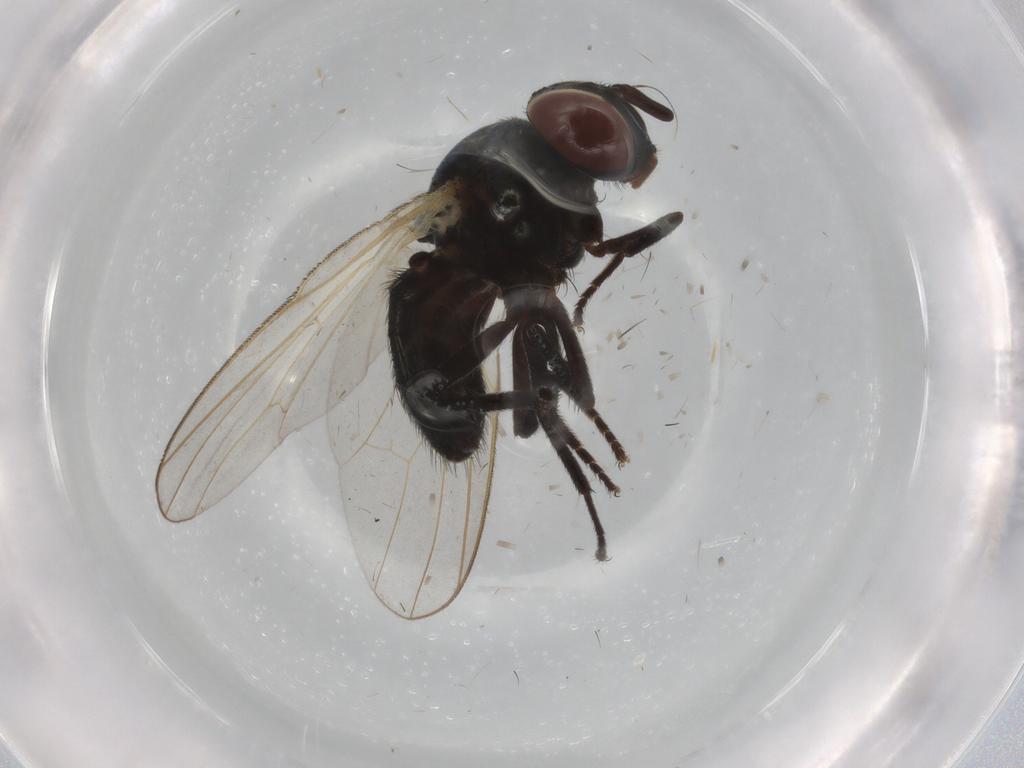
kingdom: Animalia
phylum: Arthropoda
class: Insecta
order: Diptera
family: Lonchaeidae
